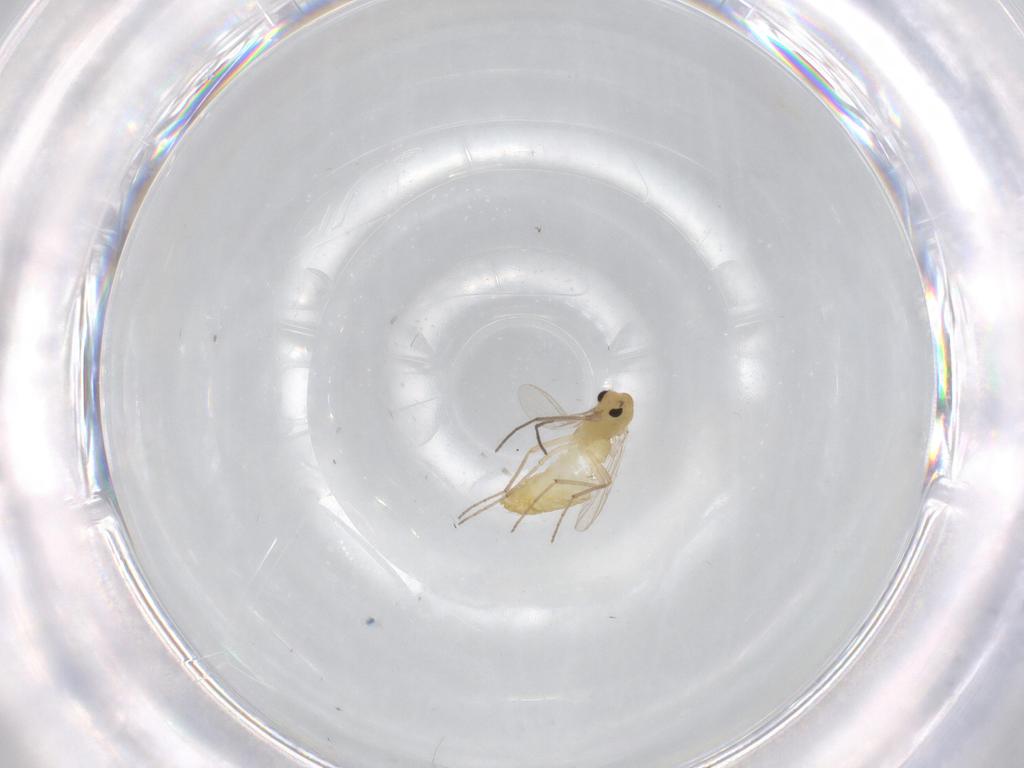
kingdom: Animalia
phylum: Arthropoda
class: Insecta
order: Diptera
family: Chironomidae
